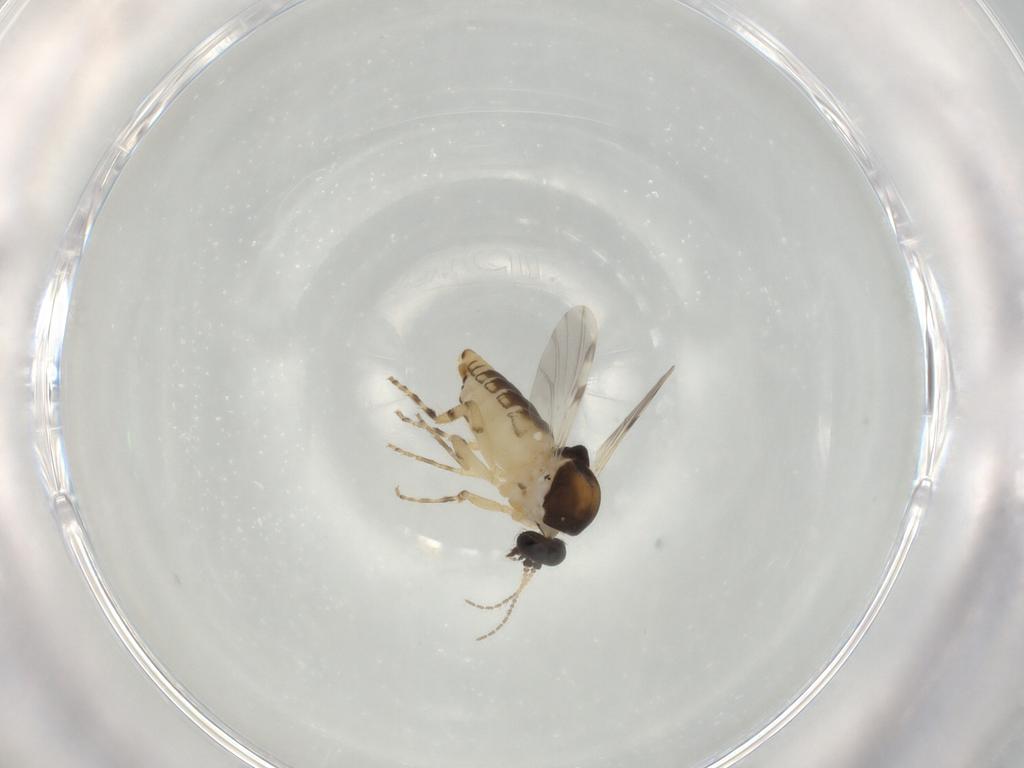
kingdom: Animalia
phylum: Arthropoda
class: Insecta
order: Diptera
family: Ceratopogonidae
